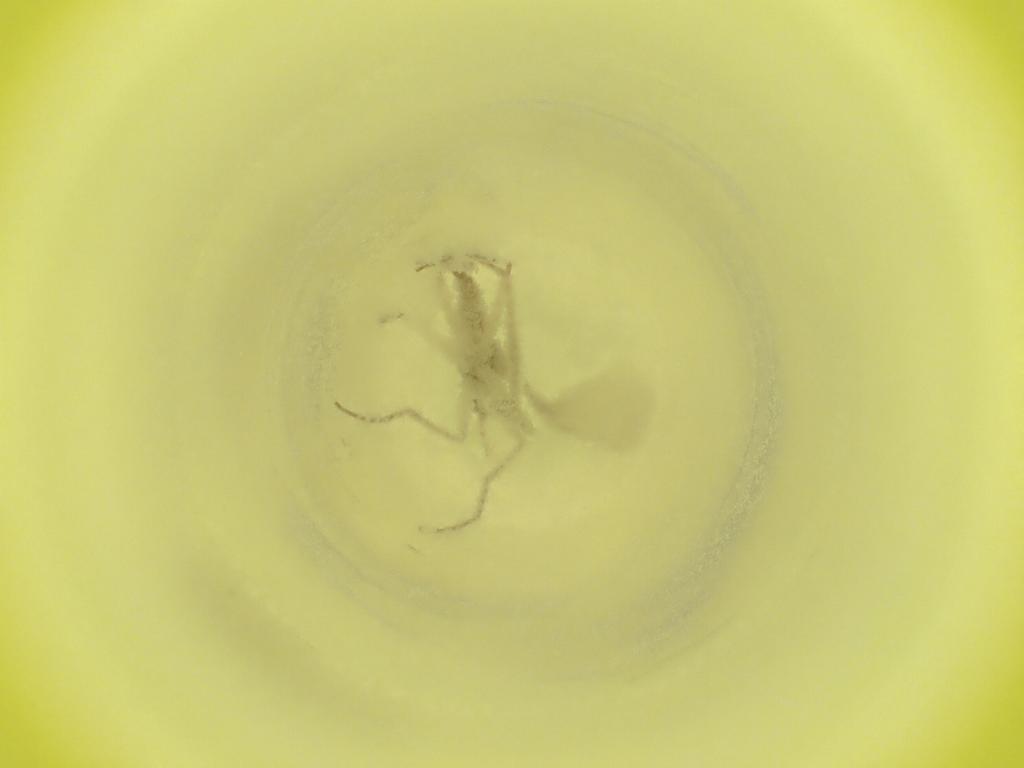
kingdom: Animalia
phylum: Arthropoda
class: Insecta
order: Diptera
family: Cecidomyiidae
